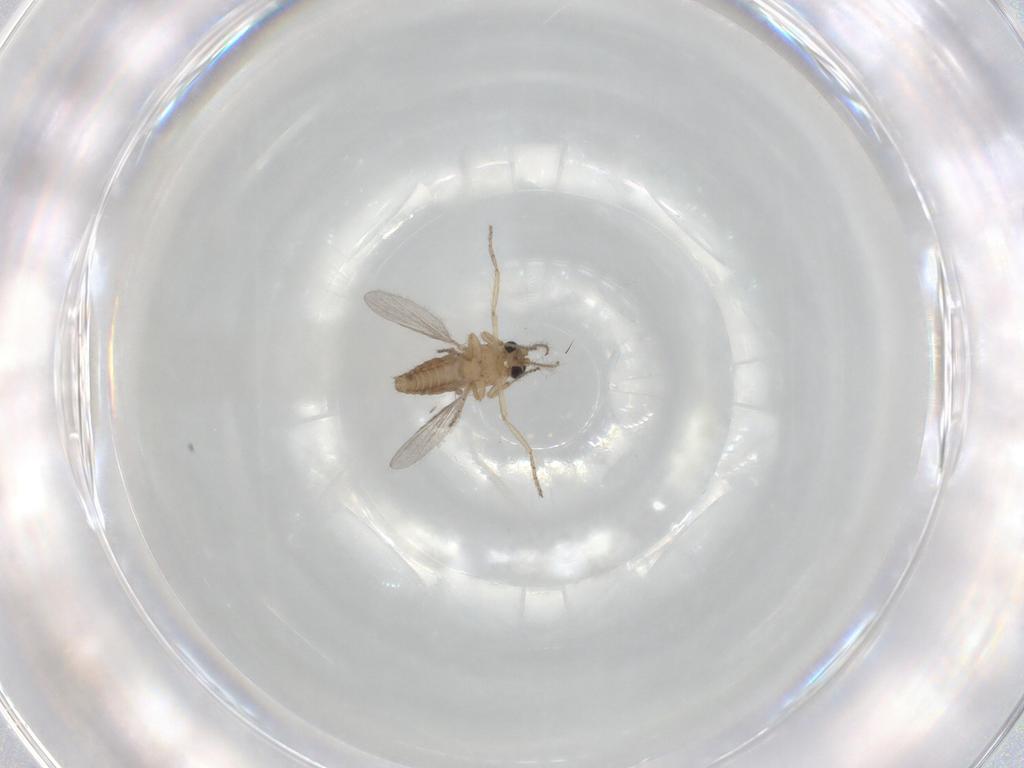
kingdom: Animalia
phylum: Arthropoda
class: Insecta
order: Diptera
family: Ceratopogonidae
